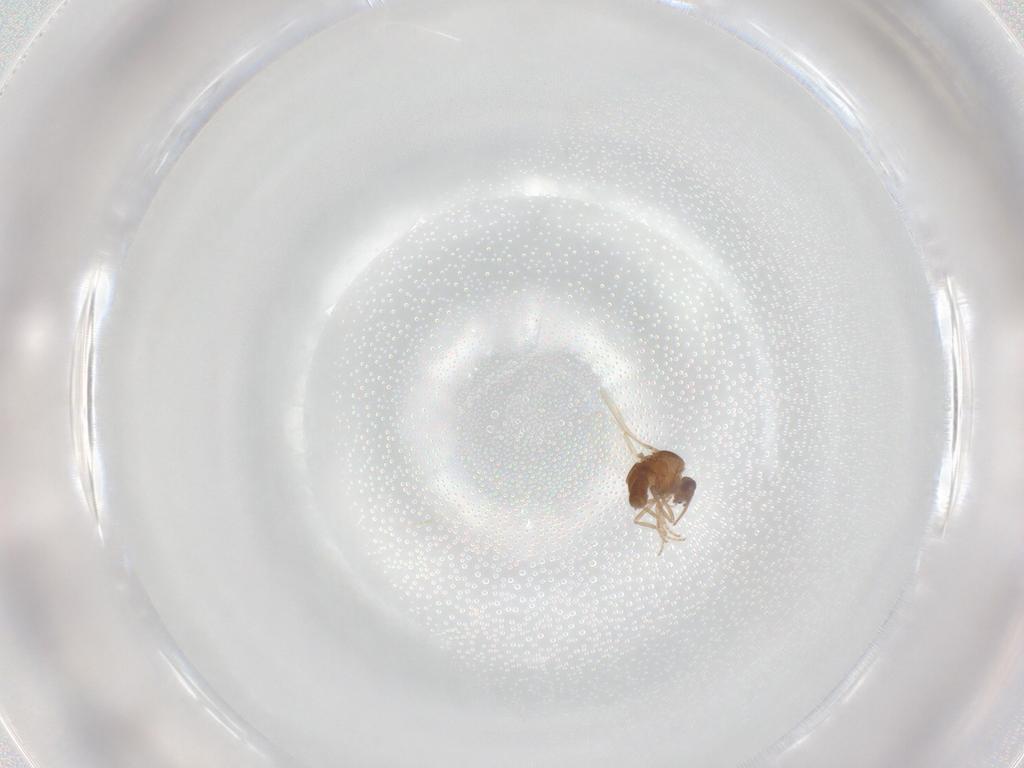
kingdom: Animalia
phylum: Arthropoda
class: Insecta
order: Diptera
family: Ceratopogonidae
